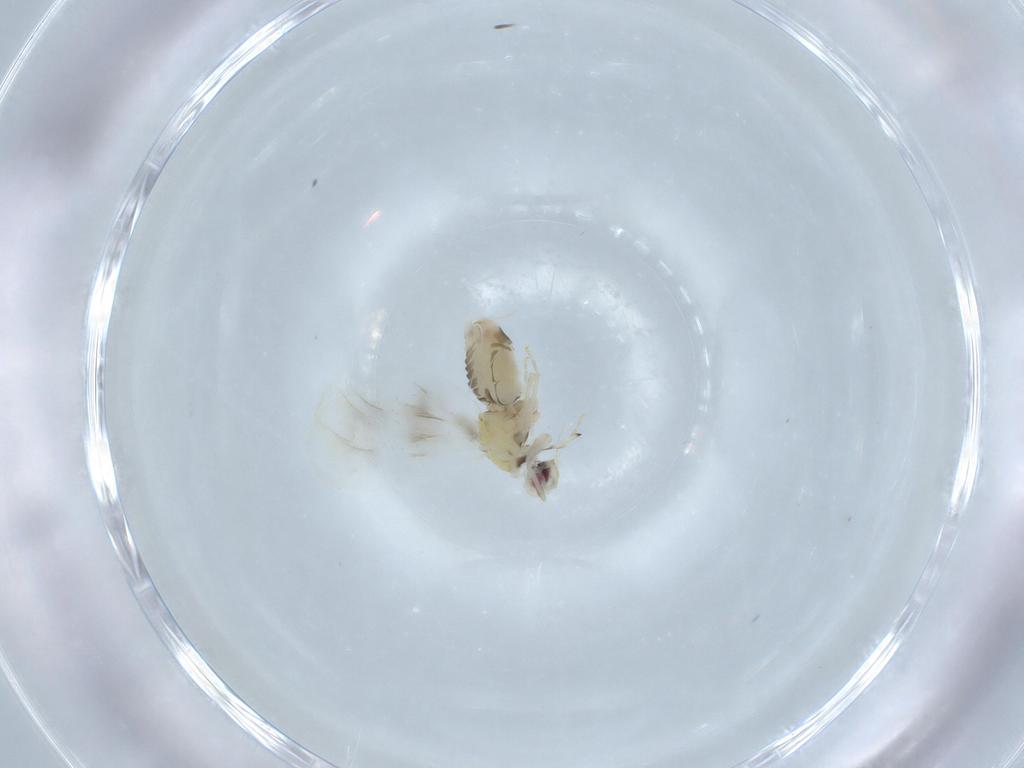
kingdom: Animalia
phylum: Arthropoda
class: Insecta
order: Hemiptera
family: Aleyrodidae
